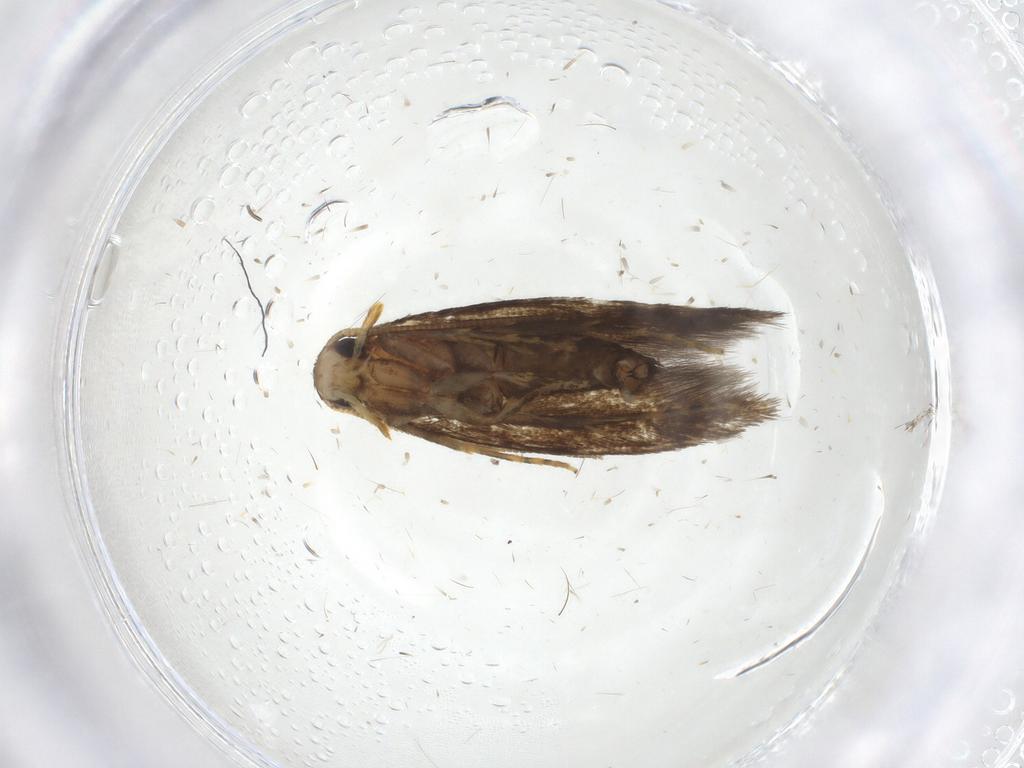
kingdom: Animalia
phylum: Arthropoda
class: Insecta
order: Lepidoptera
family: Tineidae
